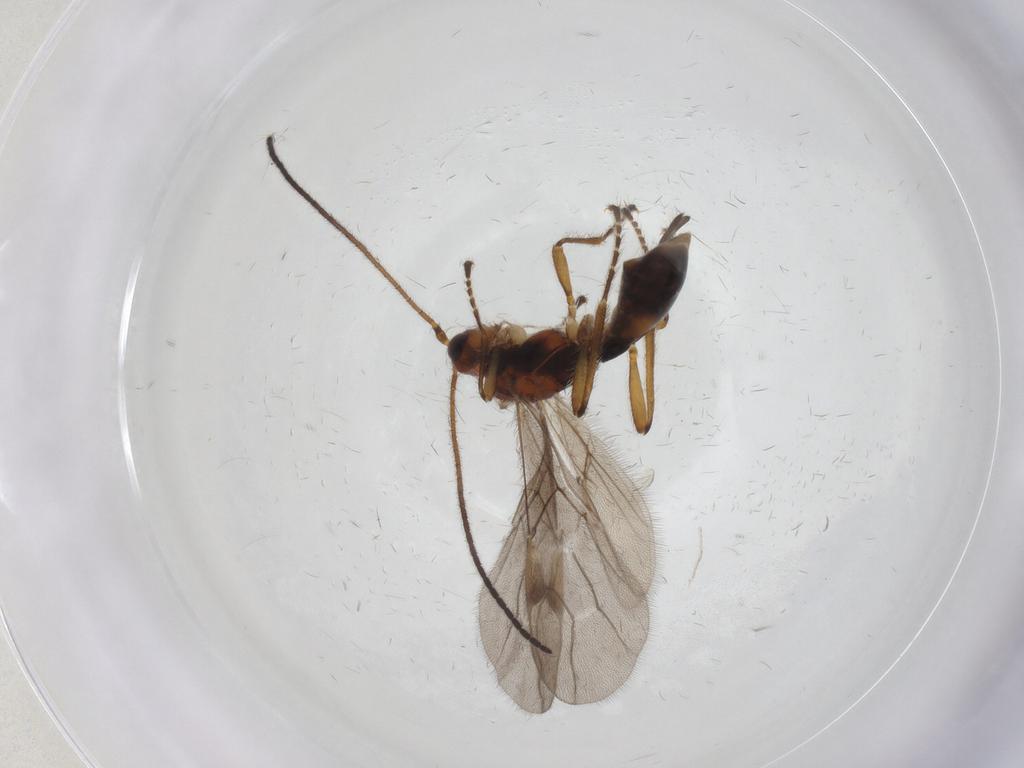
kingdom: Animalia
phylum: Arthropoda
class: Insecta
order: Hymenoptera
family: Braconidae
